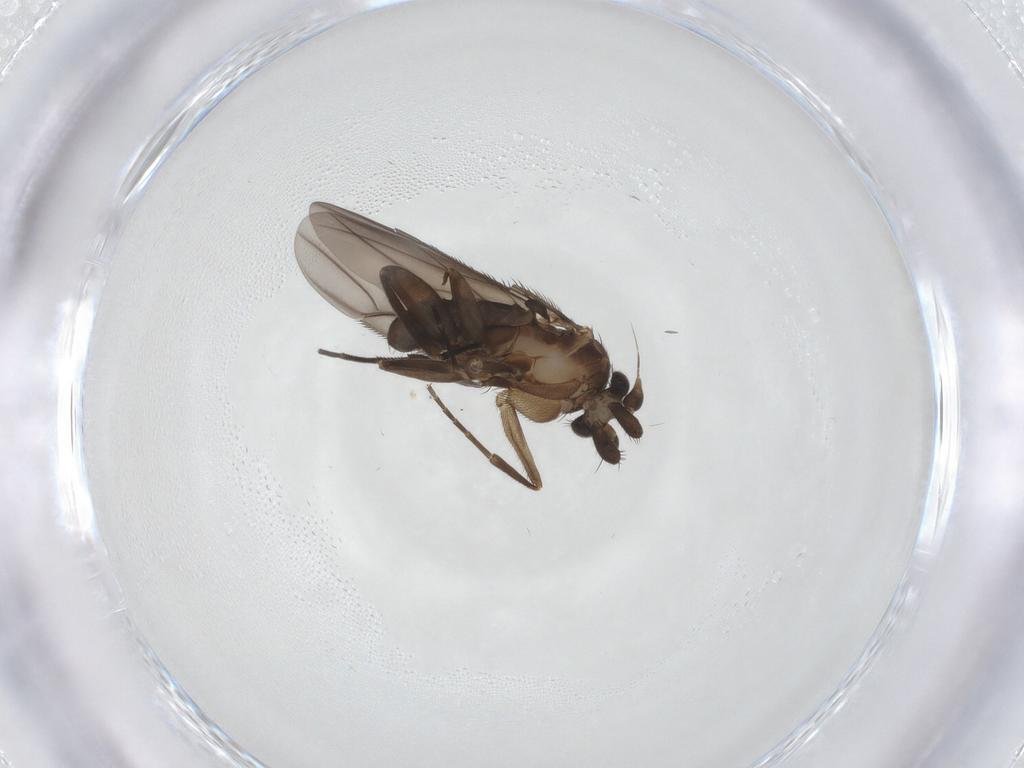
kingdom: Animalia
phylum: Arthropoda
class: Insecta
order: Diptera
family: Phoridae
